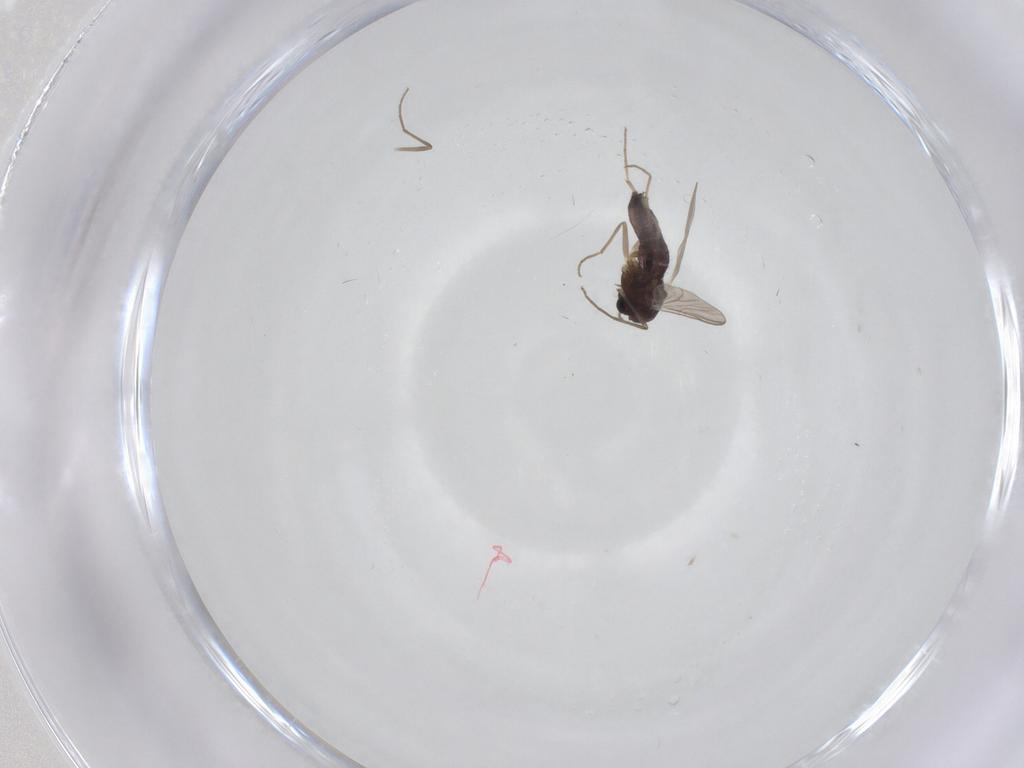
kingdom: Animalia
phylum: Arthropoda
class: Insecta
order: Diptera
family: Chironomidae
